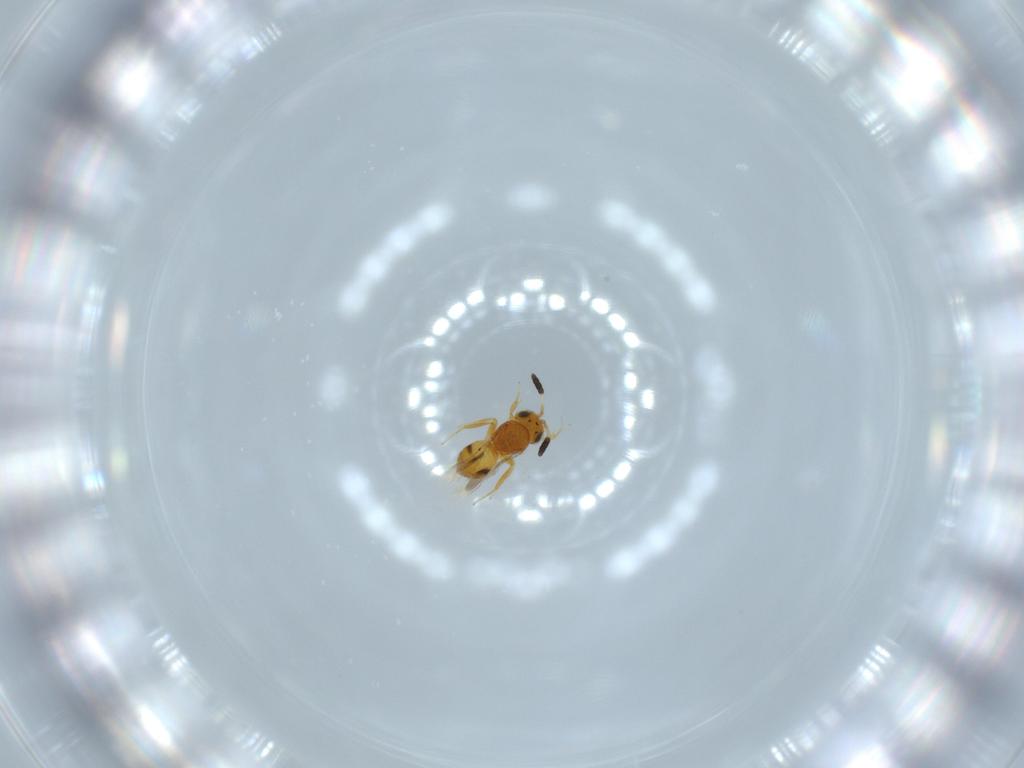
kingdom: Animalia
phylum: Arthropoda
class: Insecta
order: Hymenoptera
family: Scelionidae
